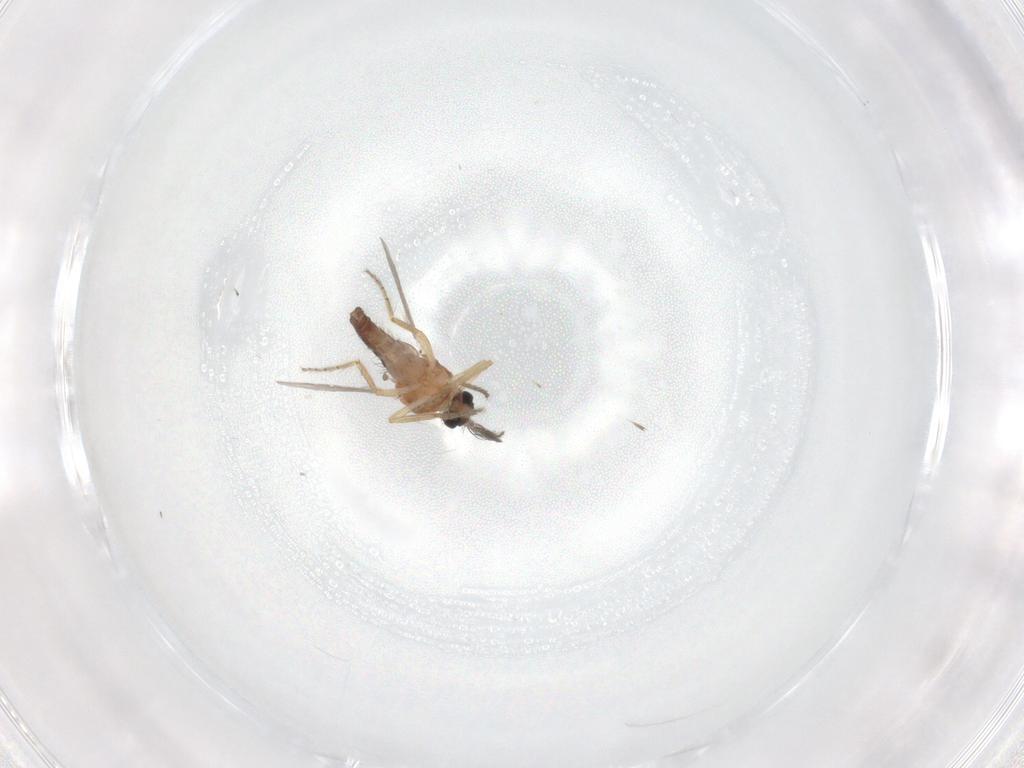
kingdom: Animalia
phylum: Arthropoda
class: Insecta
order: Diptera
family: Ceratopogonidae
